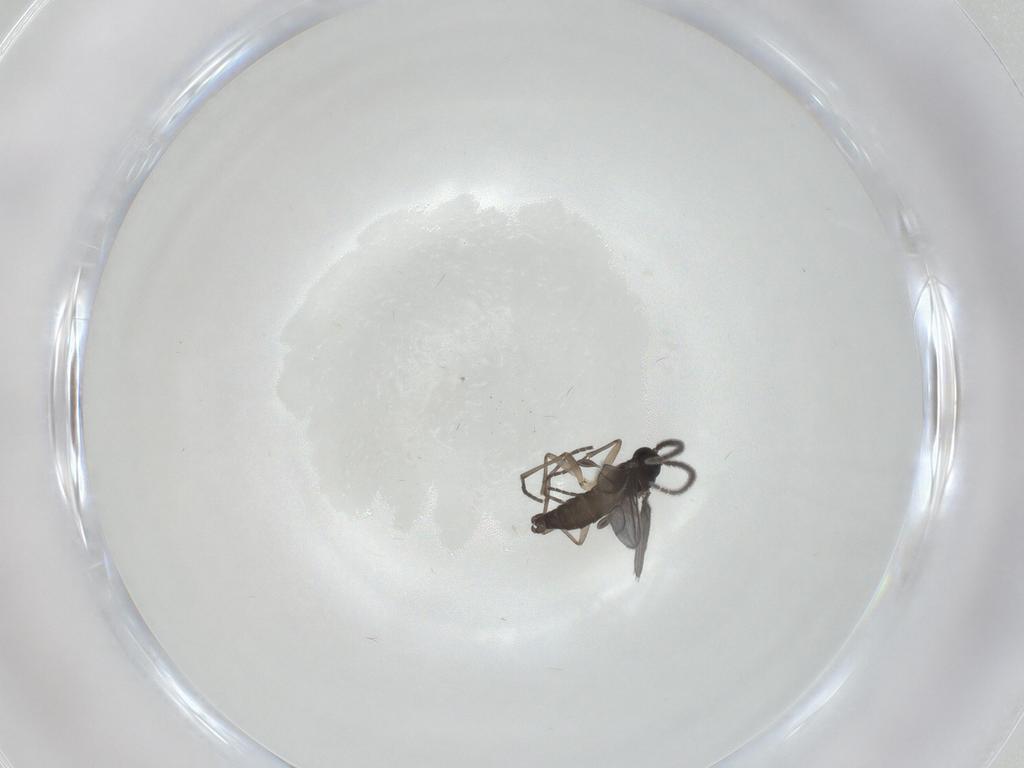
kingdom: Animalia
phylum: Arthropoda
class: Insecta
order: Diptera
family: Sciaridae
